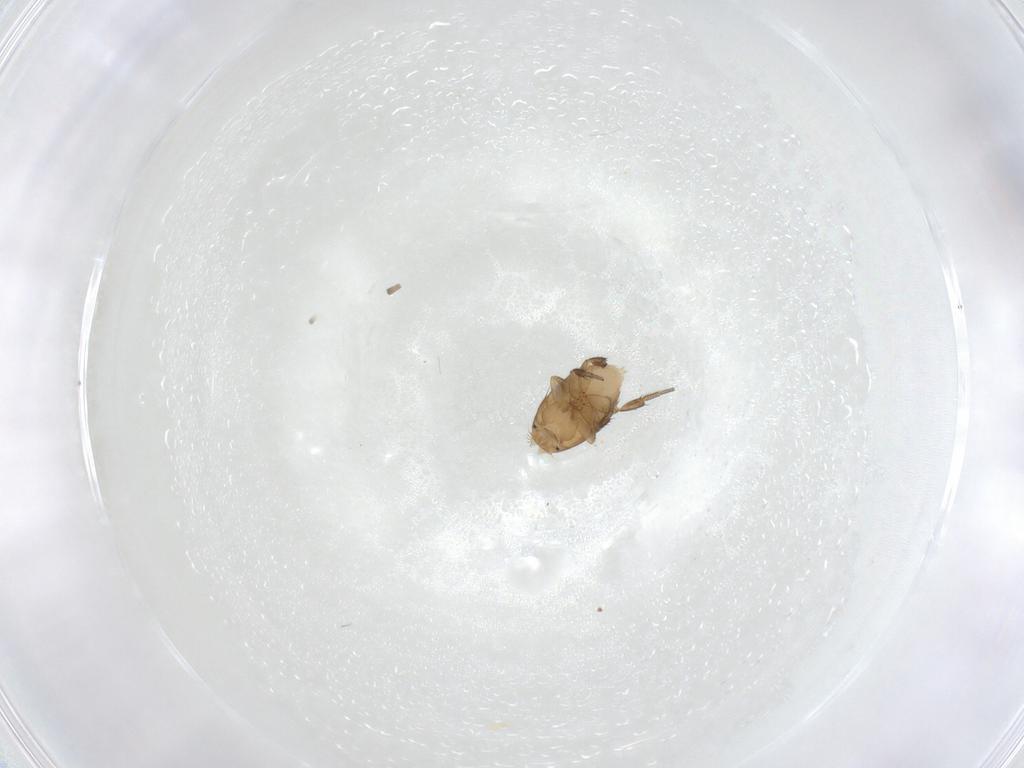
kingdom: Animalia
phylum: Arthropoda
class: Insecta
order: Diptera
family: Phoridae
